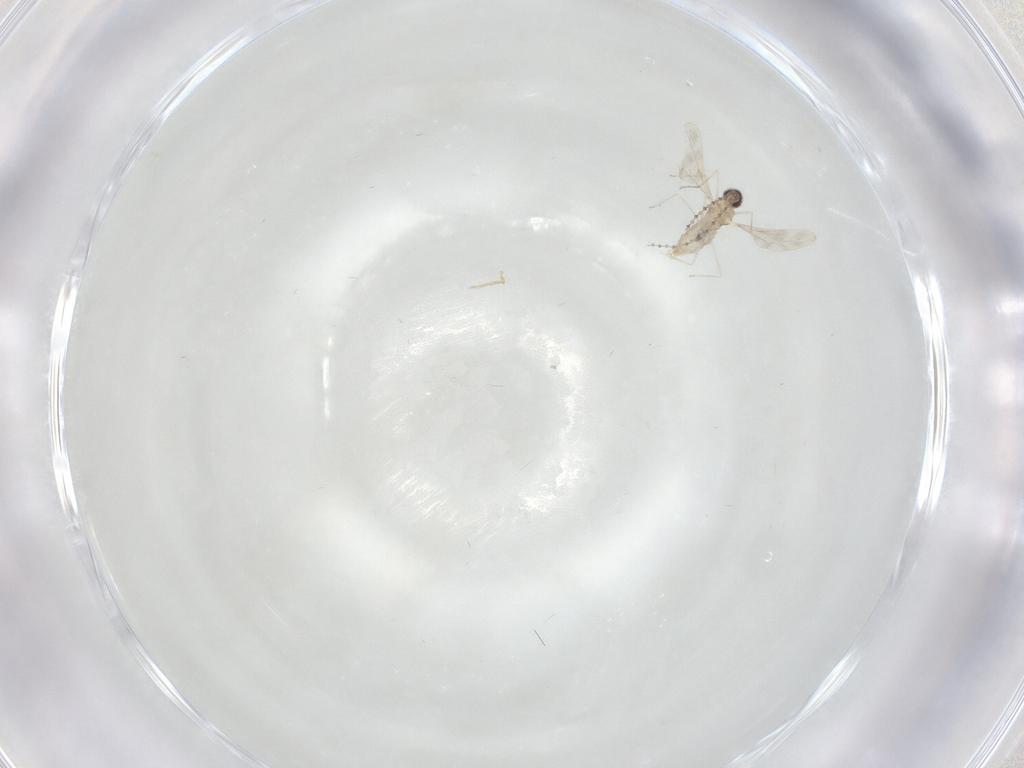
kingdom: Animalia
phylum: Arthropoda
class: Insecta
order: Diptera
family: Cecidomyiidae
